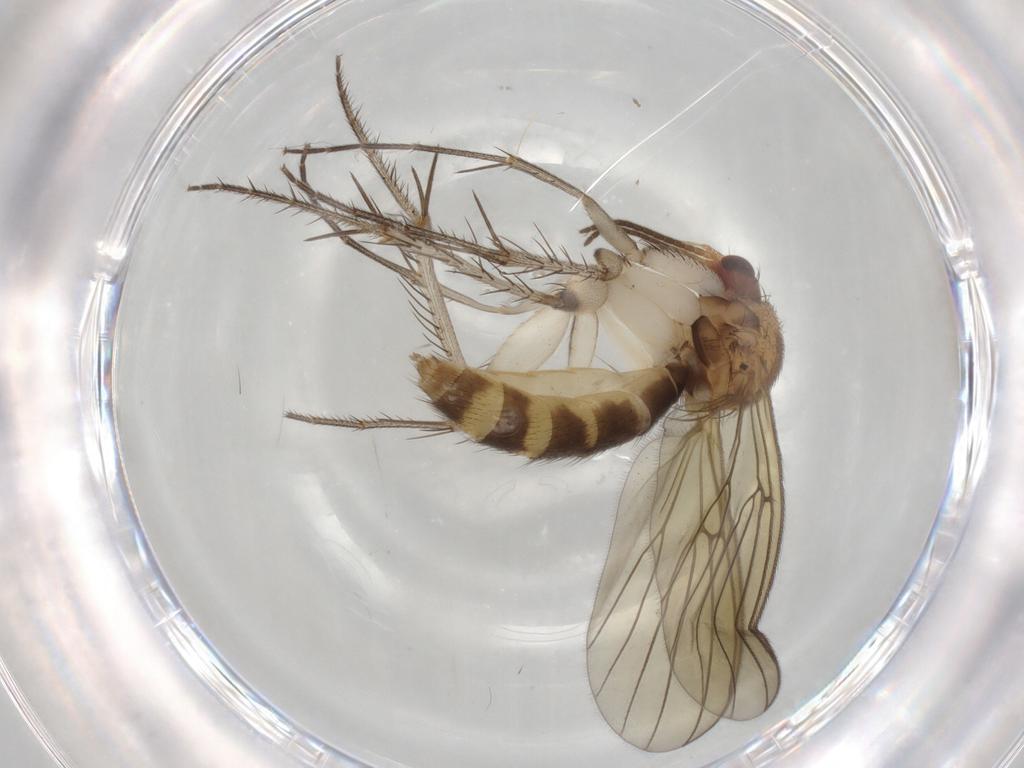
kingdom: Animalia
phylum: Arthropoda
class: Insecta
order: Diptera
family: Mycetophilidae
